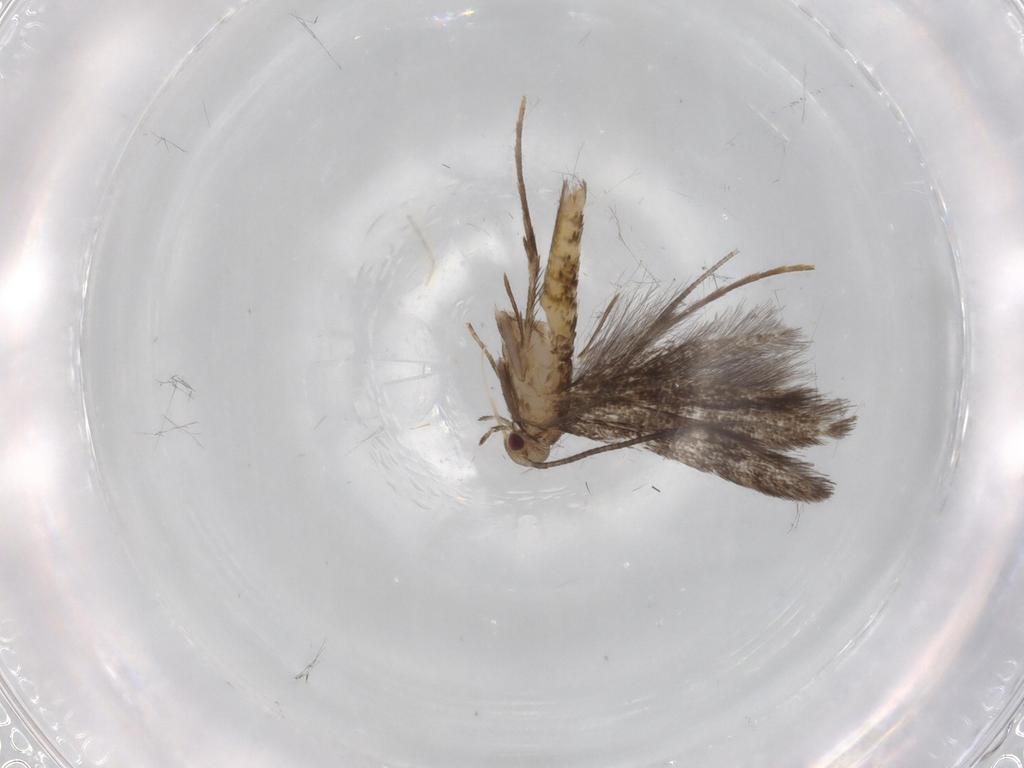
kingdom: Animalia
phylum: Arthropoda
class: Insecta
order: Lepidoptera
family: Gracillariidae
